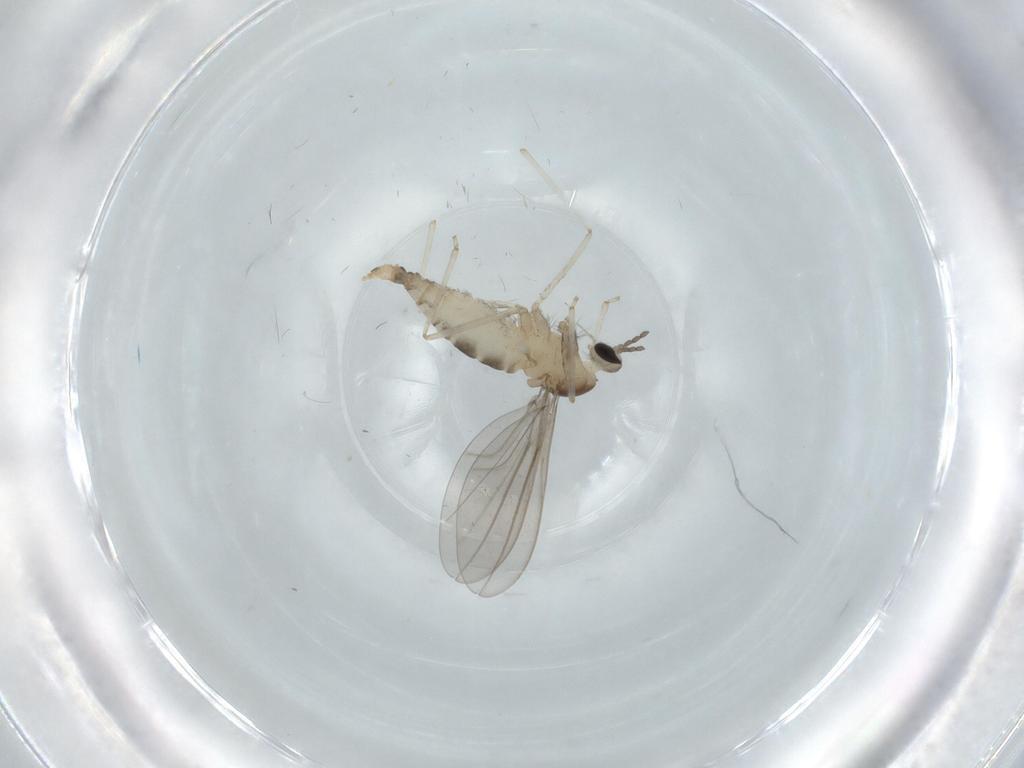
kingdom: Animalia
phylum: Arthropoda
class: Insecta
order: Diptera
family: Cecidomyiidae
